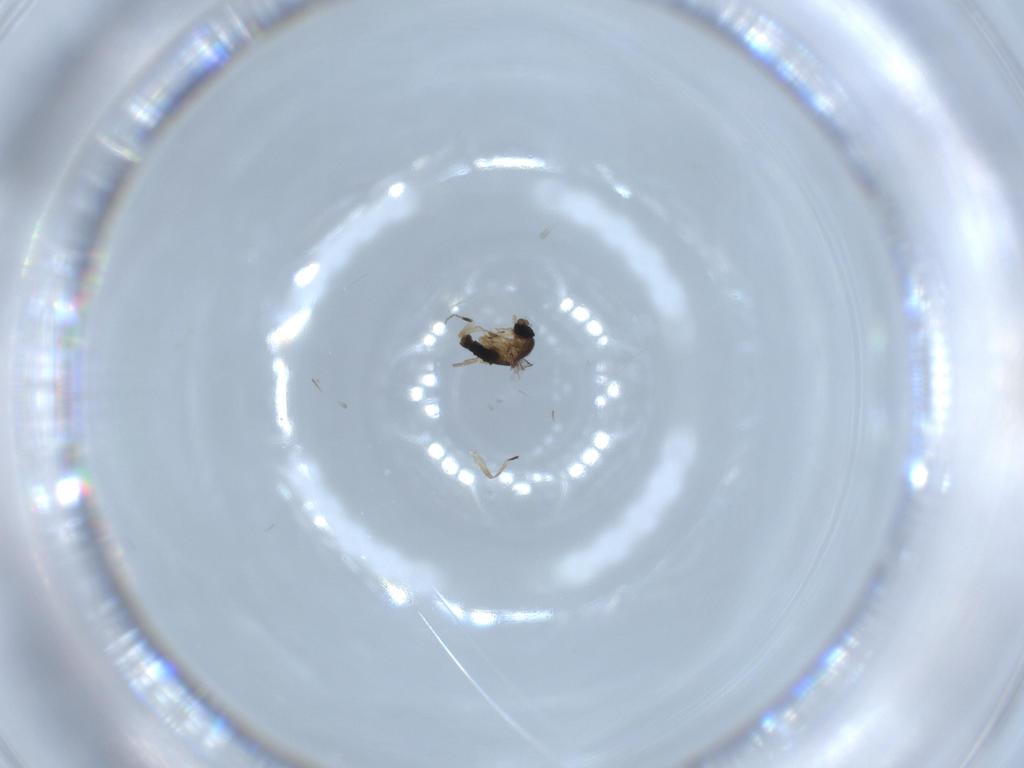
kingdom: Animalia
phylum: Arthropoda
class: Insecta
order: Diptera
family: Phoridae
